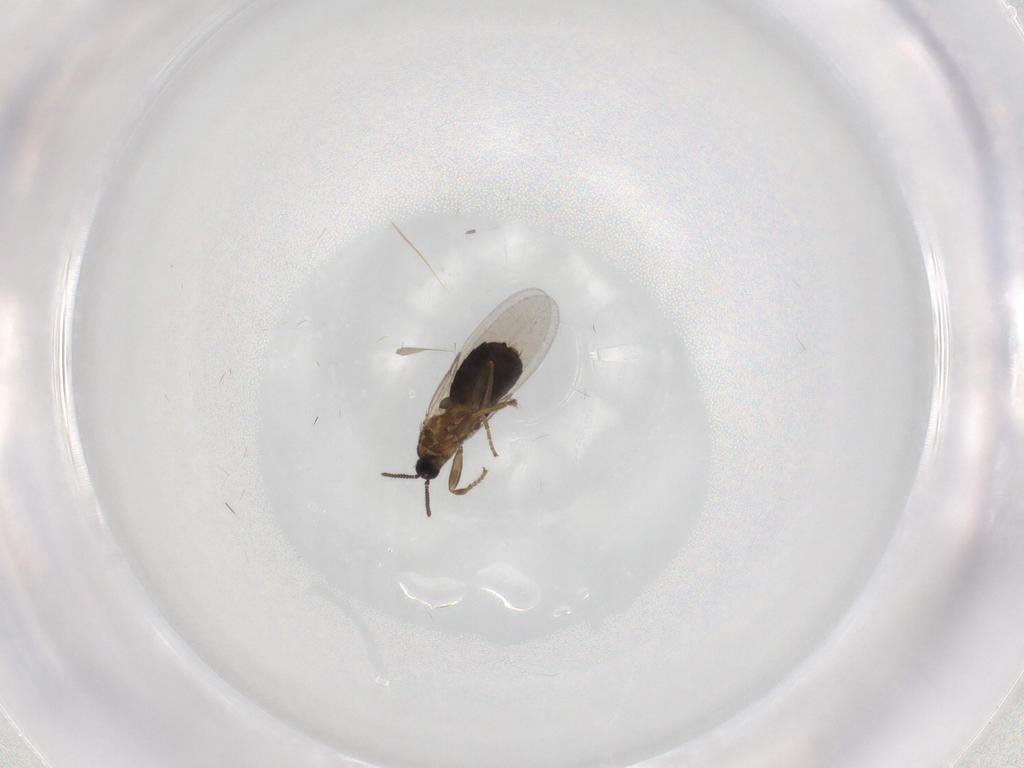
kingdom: Animalia
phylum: Arthropoda
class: Insecta
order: Diptera
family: Scatopsidae
